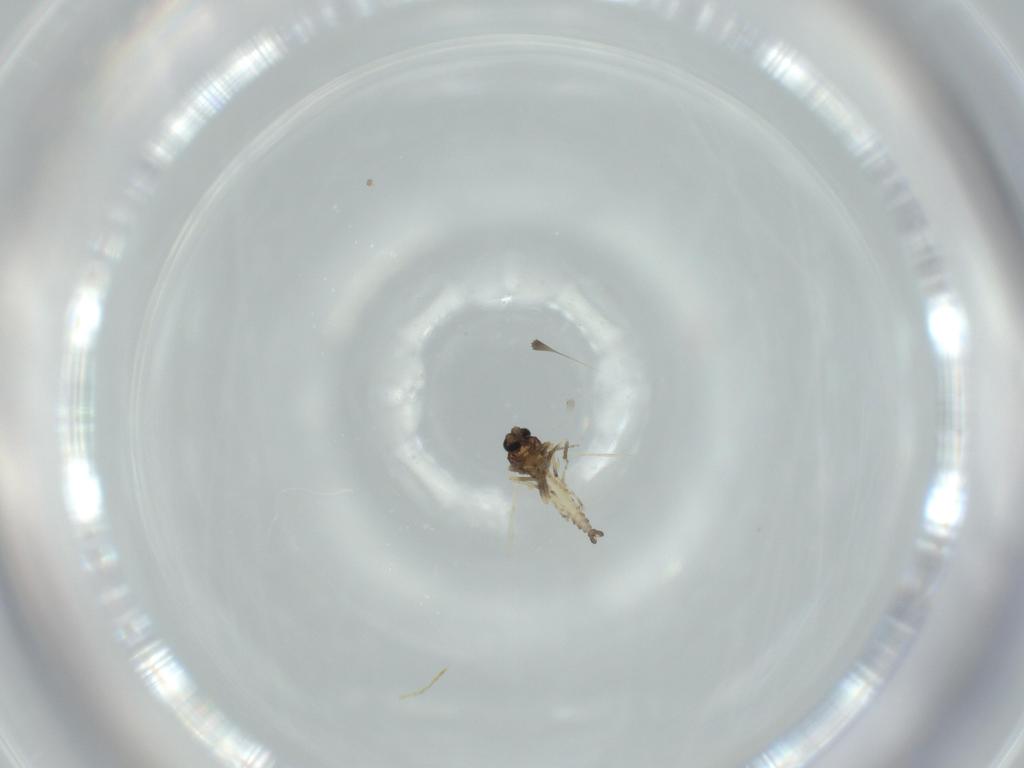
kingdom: Animalia
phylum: Arthropoda
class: Insecta
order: Diptera
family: Ceratopogonidae
